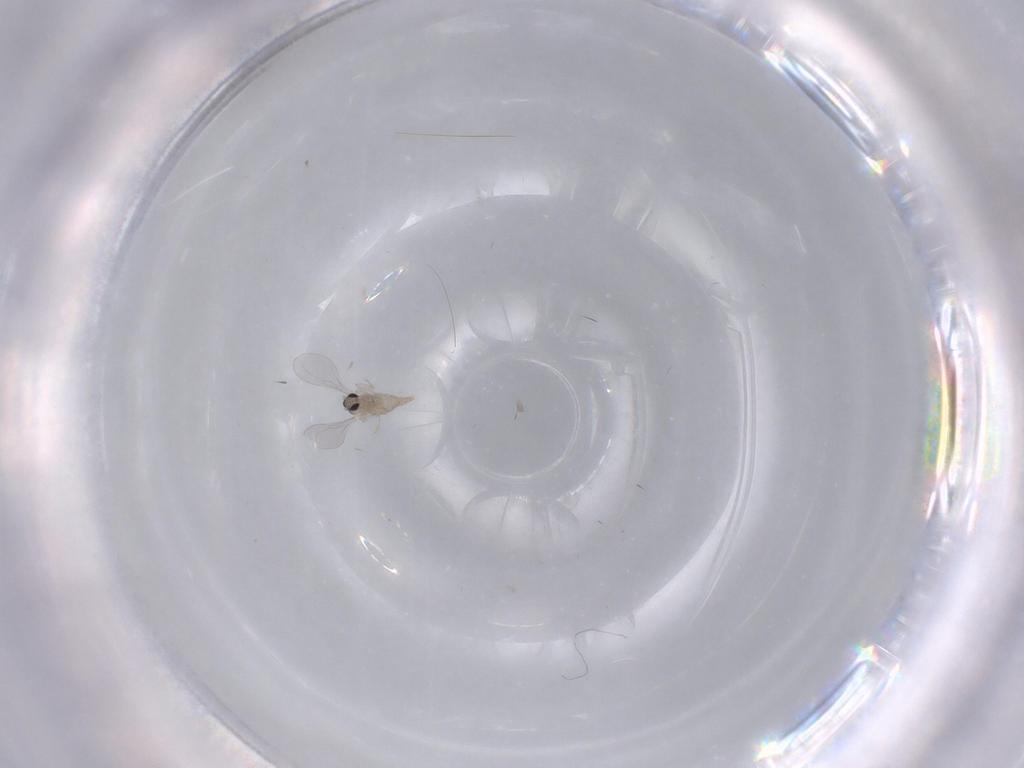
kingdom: Animalia
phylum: Arthropoda
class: Insecta
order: Diptera
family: Cecidomyiidae
